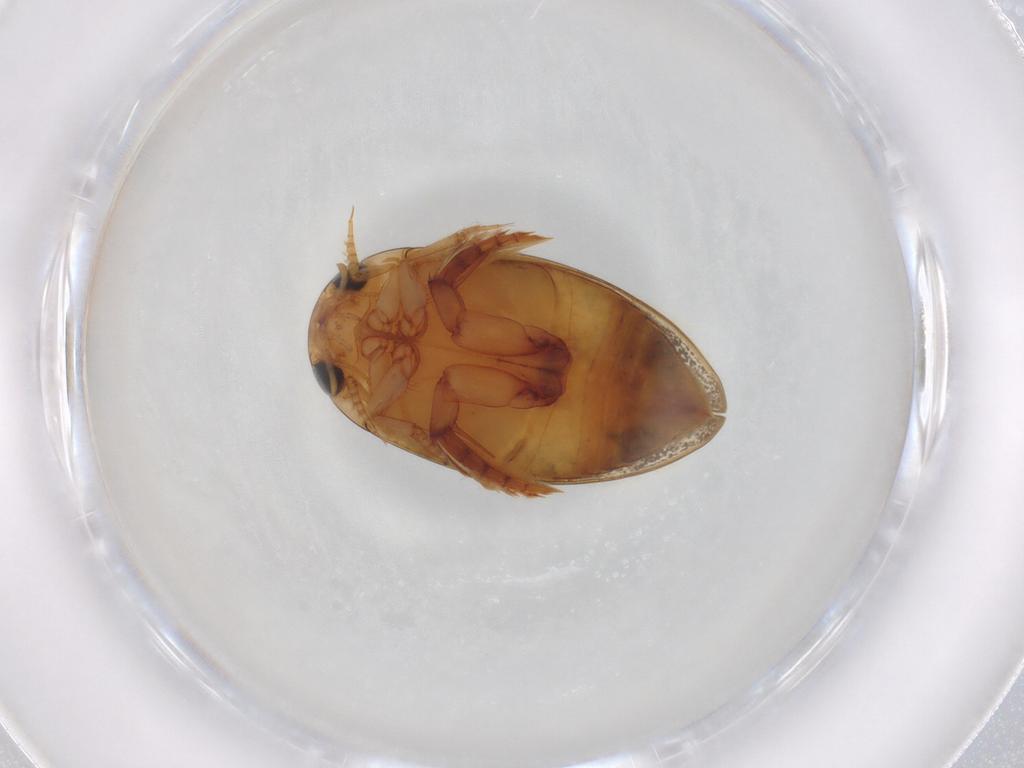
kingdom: Animalia
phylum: Arthropoda
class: Insecta
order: Coleoptera
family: Dytiscidae
